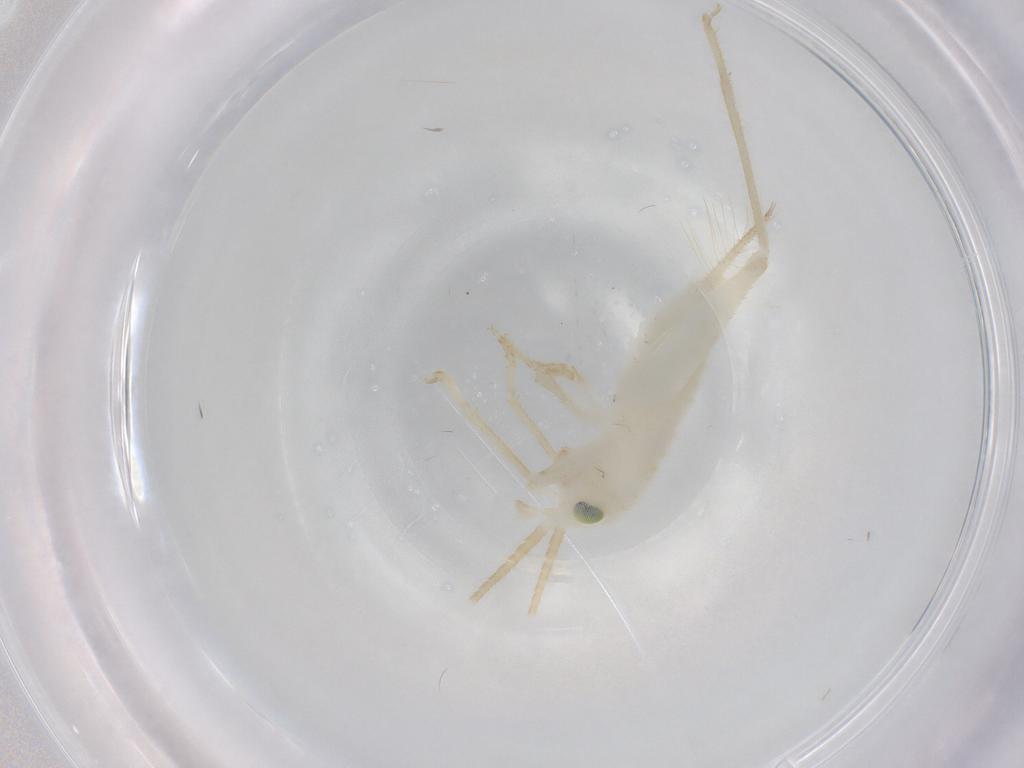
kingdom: Animalia
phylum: Arthropoda
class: Insecta
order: Orthoptera
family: Trigonidiidae
